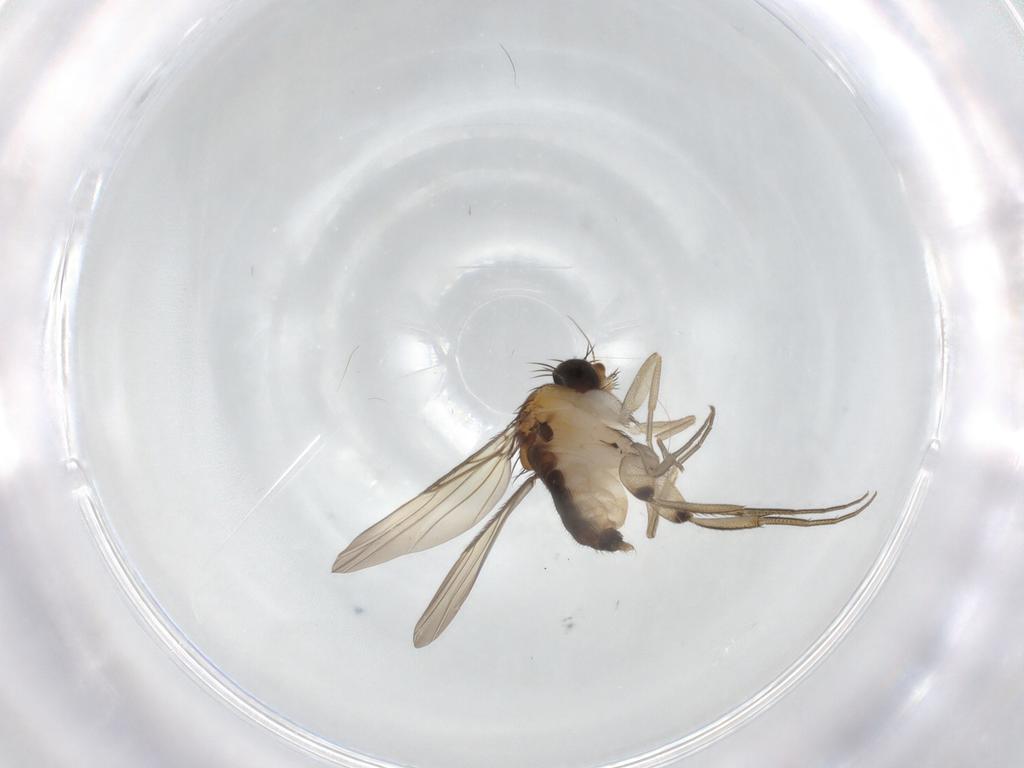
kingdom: Animalia
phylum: Arthropoda
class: Insecta
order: Diptera
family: Phoridae
